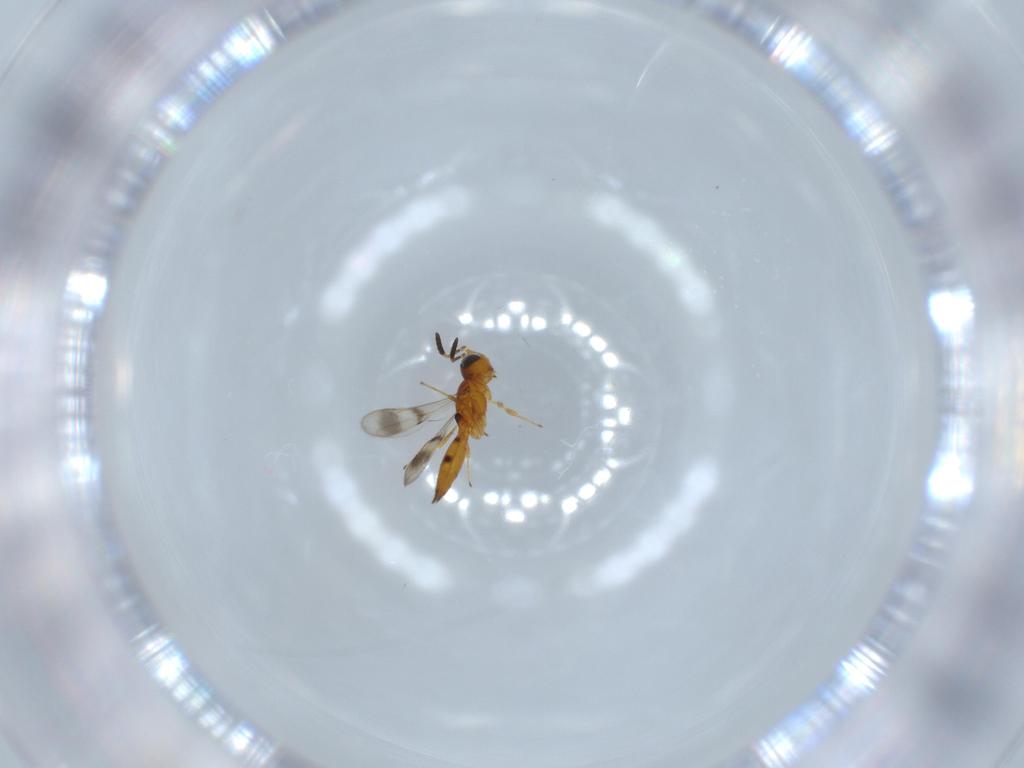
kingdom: Animalia
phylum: Arthropoda
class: Insecta
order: Hymenoptera
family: Scelionidae
